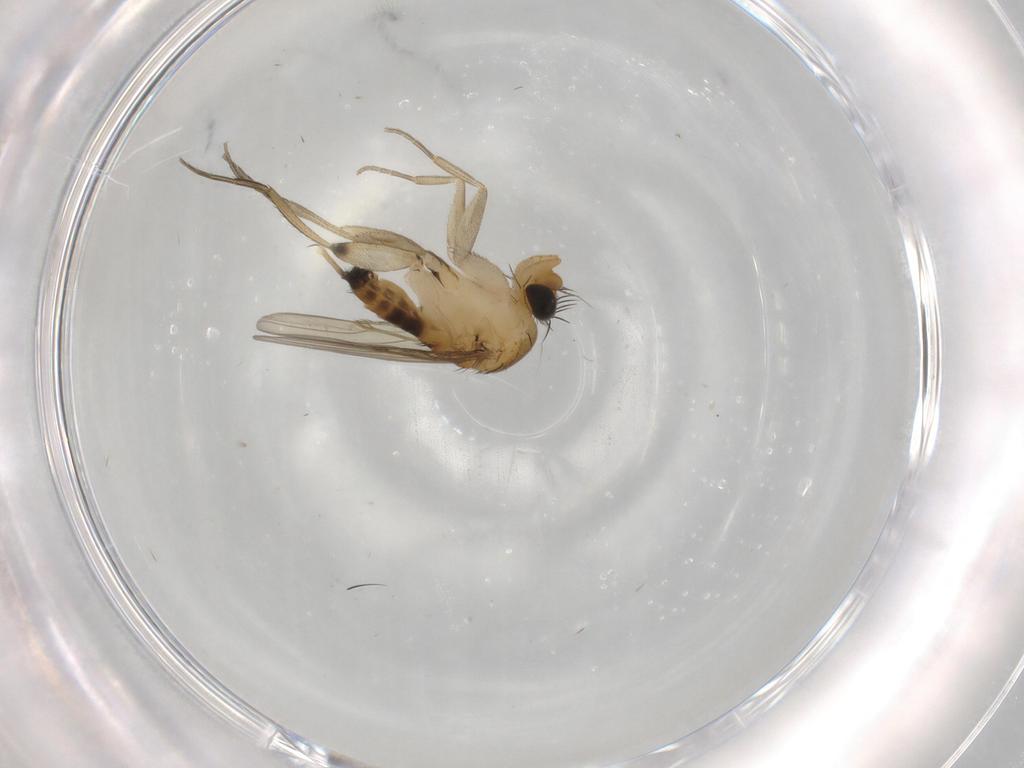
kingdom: Animalia
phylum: Arthropoda
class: Insecta
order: Diptera
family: Phoridae
